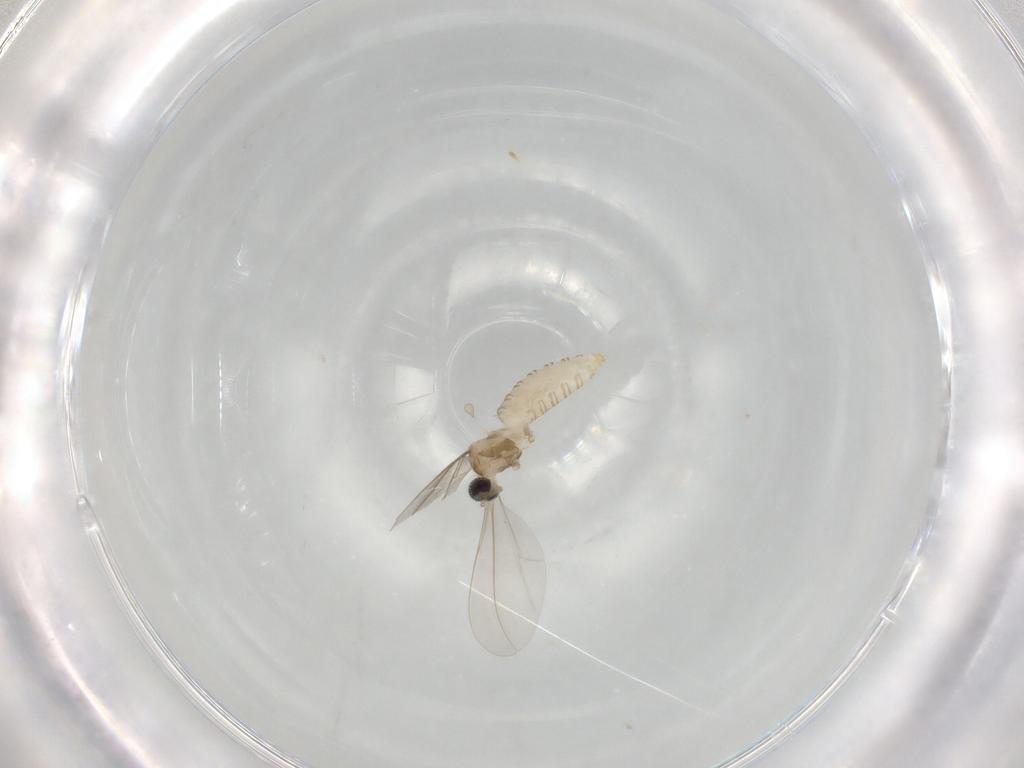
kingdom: Animalia
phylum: Arthropoda
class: Insecta
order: Diptera
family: Cecidomyiidae
